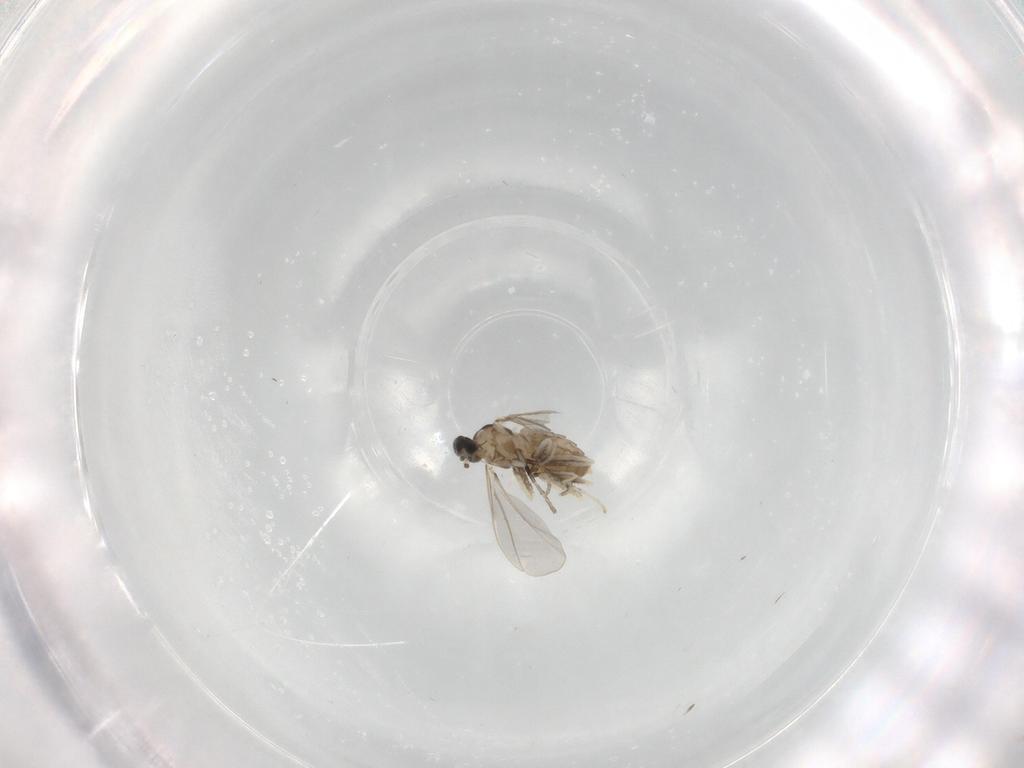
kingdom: Animalia
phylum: Arthropoda
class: Insecta
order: Diptera
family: Cecidomyiidae
